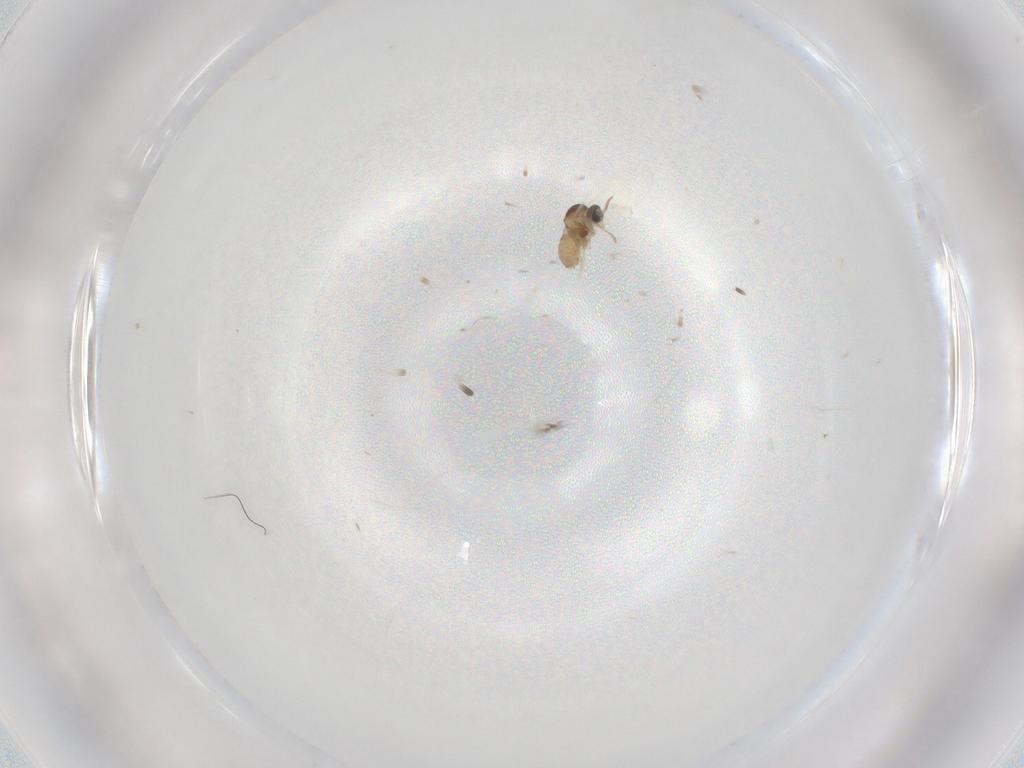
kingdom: Animalia
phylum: Arthropoda
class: Insecta
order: Diptera
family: Cecidomyiidae
